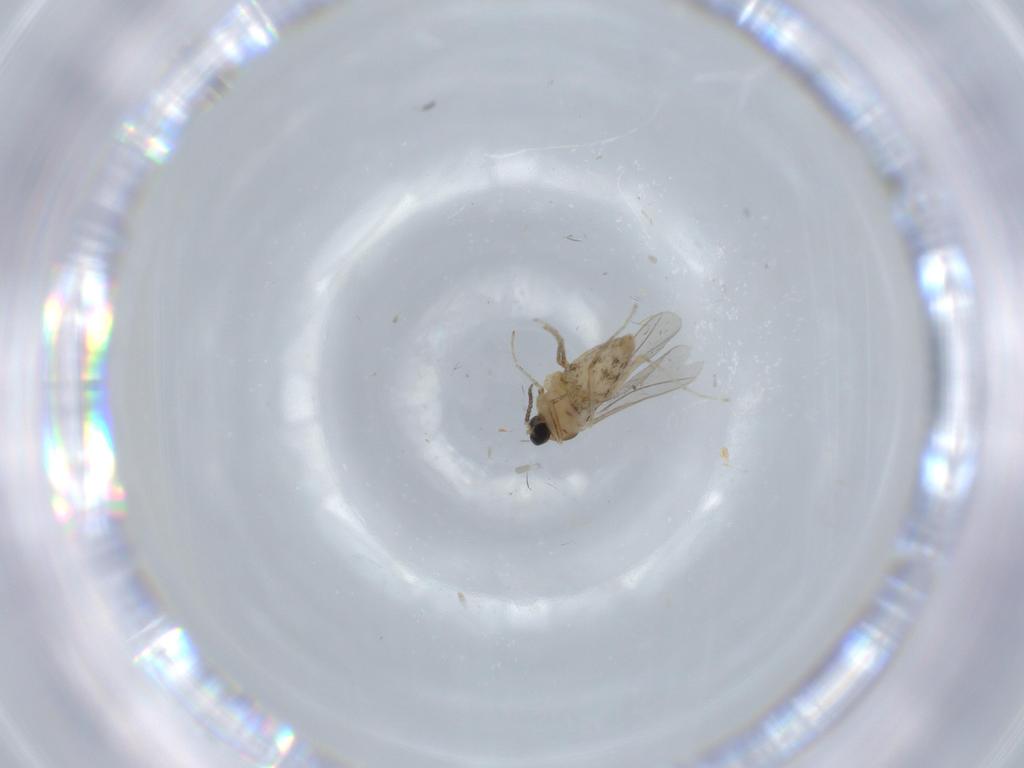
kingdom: Animalia
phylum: Arthropoda
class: Insecta
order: Diptera
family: Cecidomyiidae
